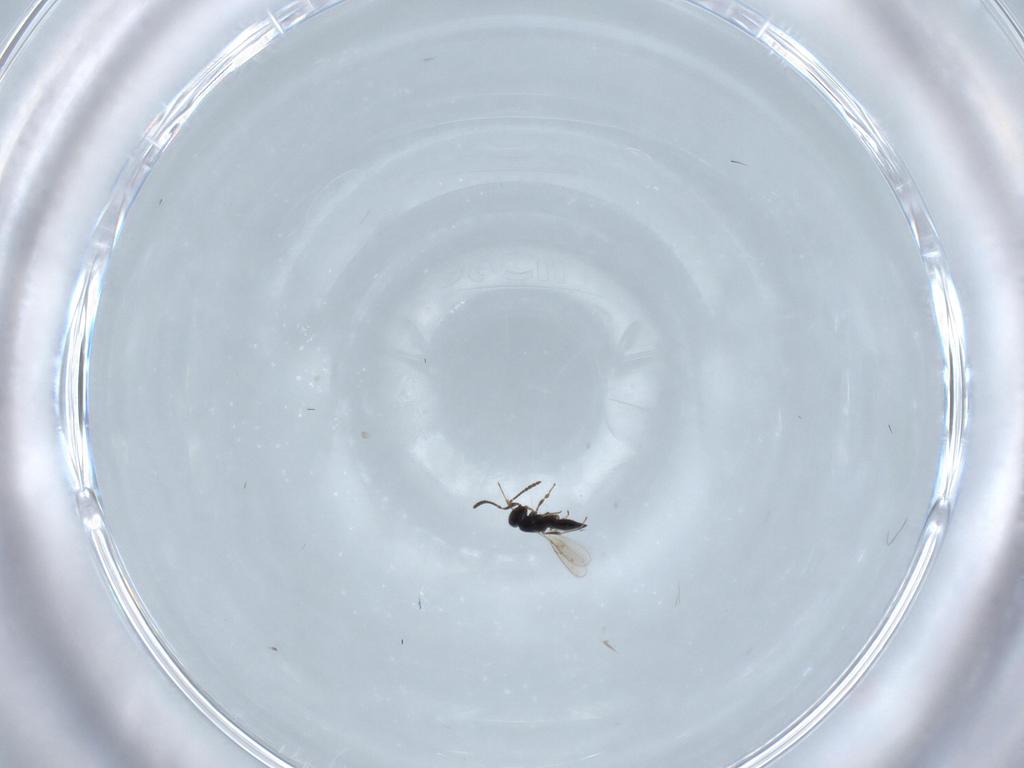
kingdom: Animalia
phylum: Arthropoda
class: Insecta
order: Hymenoptera
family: Scelionidae
